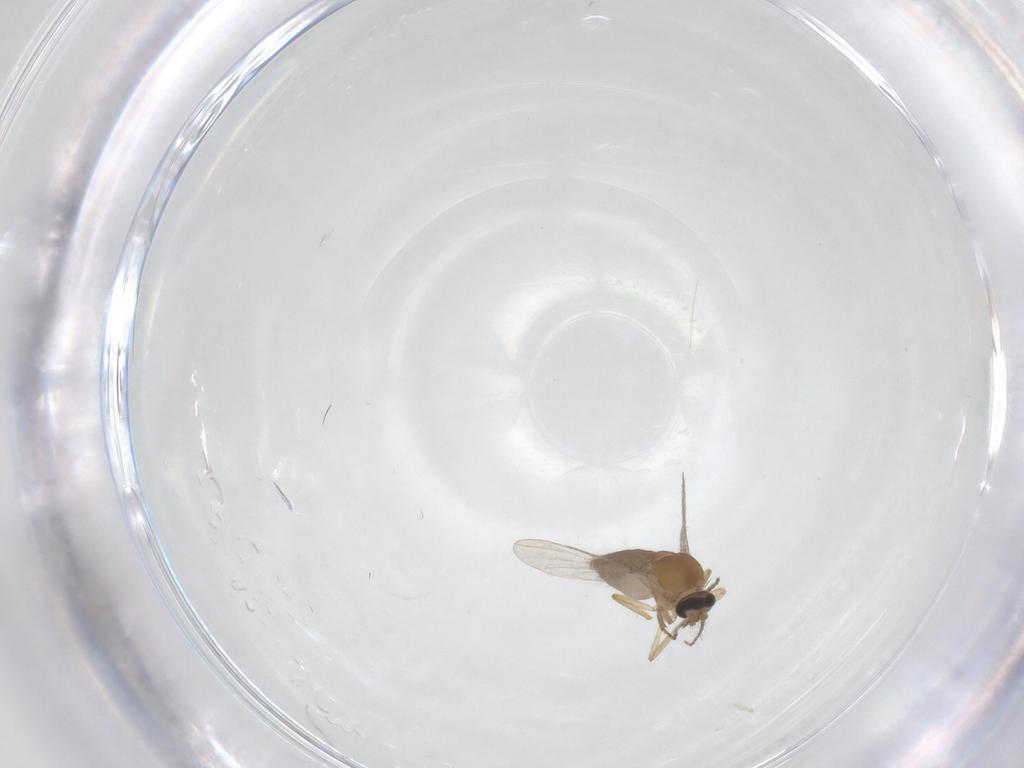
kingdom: Animalia
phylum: Arthropoda
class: Insecta
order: Diptera
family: Ceratopogonidae
